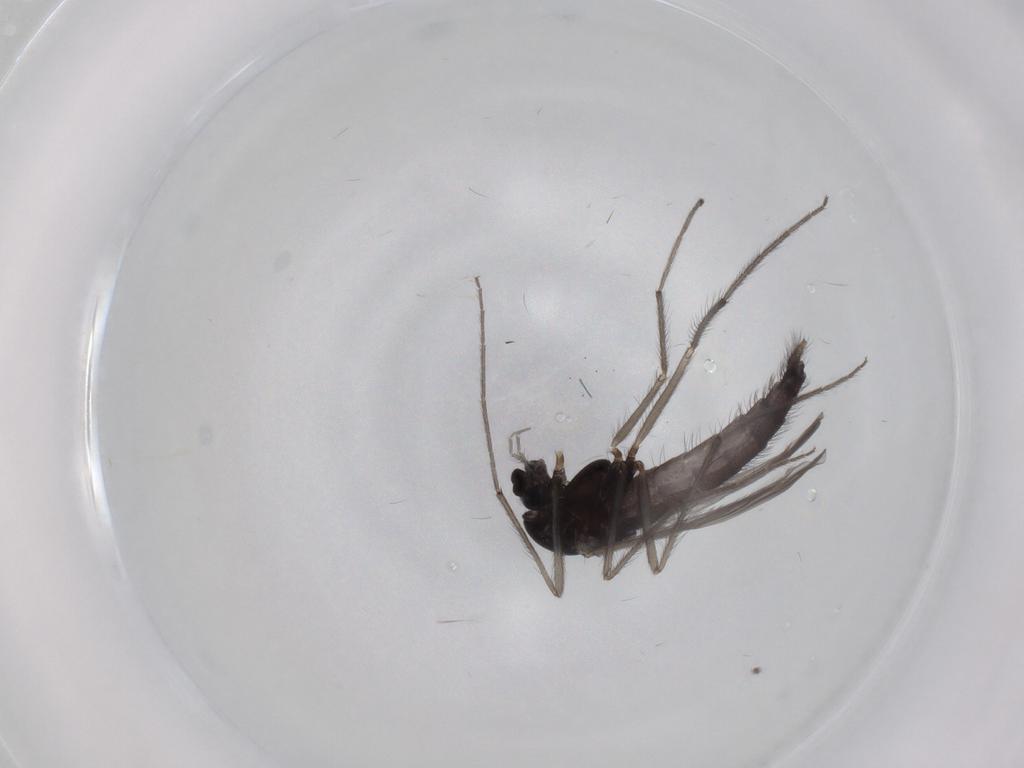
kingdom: Animalia
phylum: Arthropoda
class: Insecta
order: Diptera
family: Chironomidae
